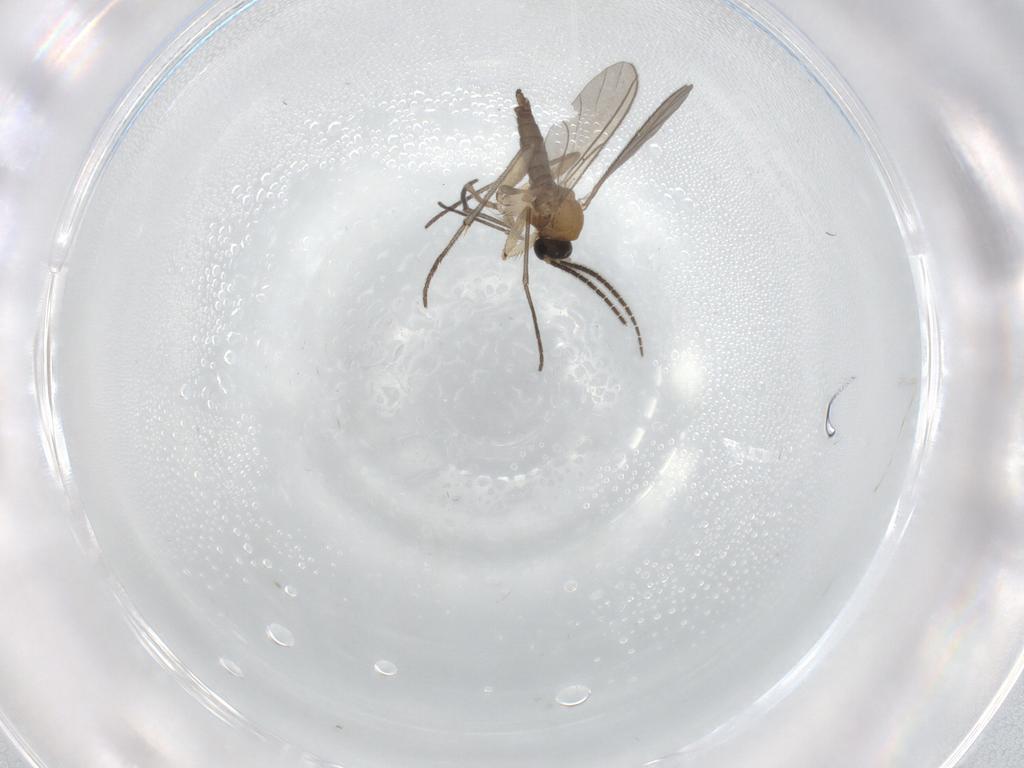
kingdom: Animalia
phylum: Arthropoda
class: Insecta
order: Diptera
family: Sciaridae
